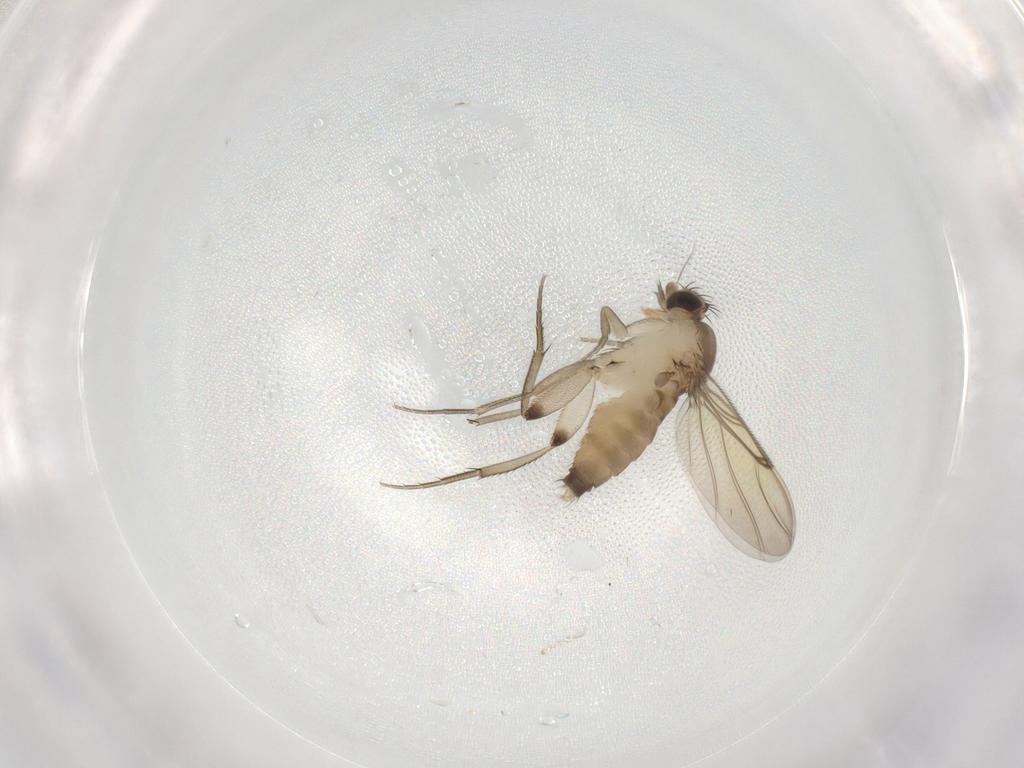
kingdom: Animalia
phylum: Arthropoda
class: Insecta
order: Diptera
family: Phoridae
